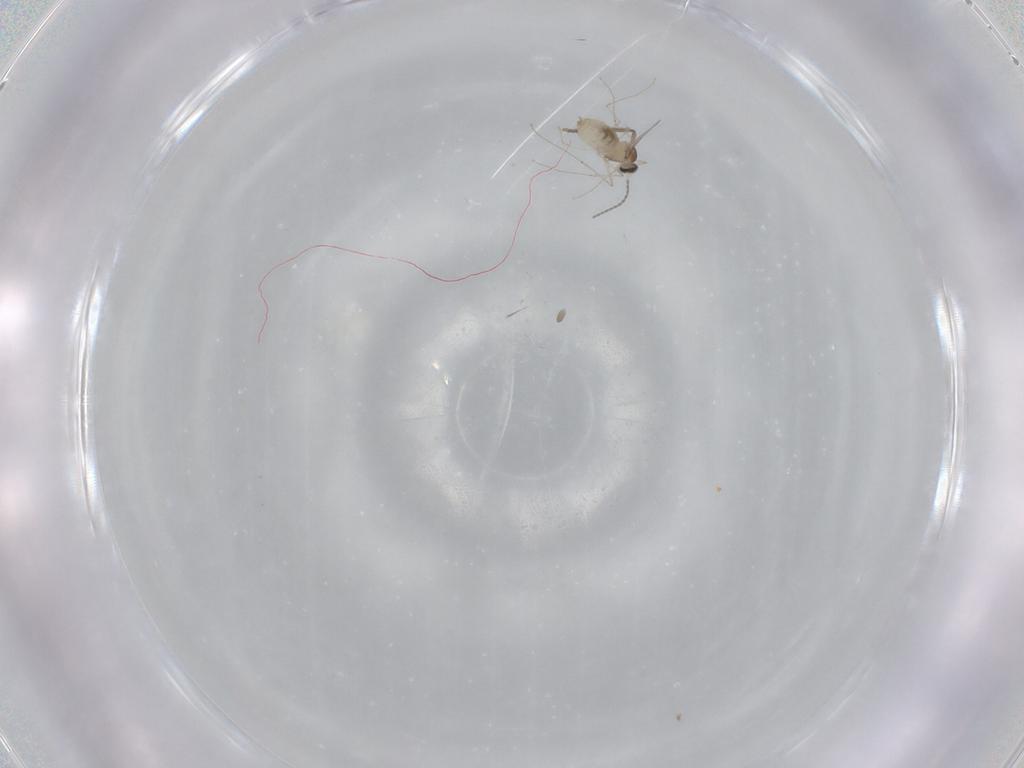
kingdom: Animalia
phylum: Arthropoda
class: Insecta
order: Diptera
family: Cecidomyiidae
